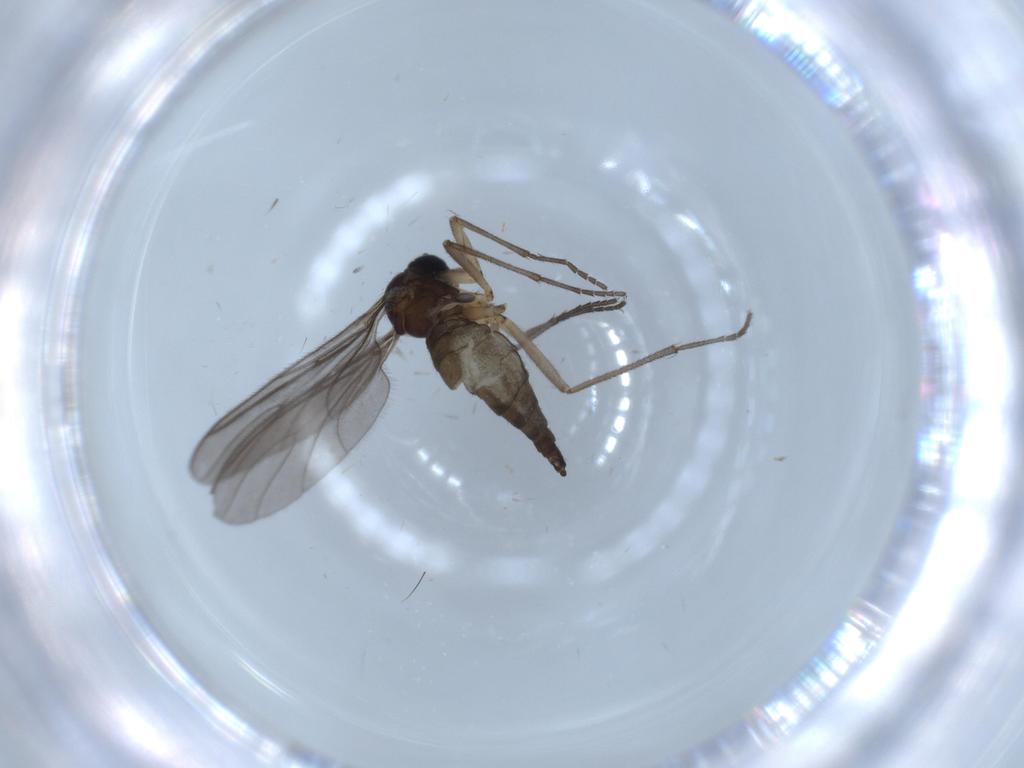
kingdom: Animalia
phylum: Arthropoda
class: Insecta
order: Diptera
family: Sciaridae
